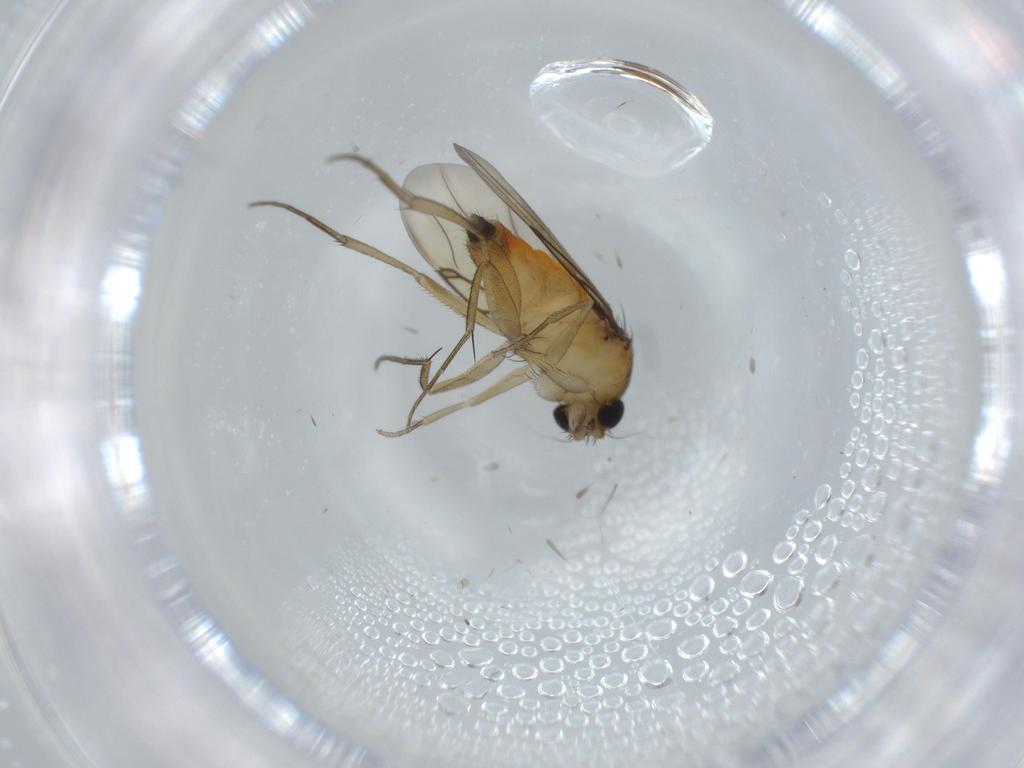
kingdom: Animalia
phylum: Arthropoda
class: Insecta
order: Diptera
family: Phoridae
